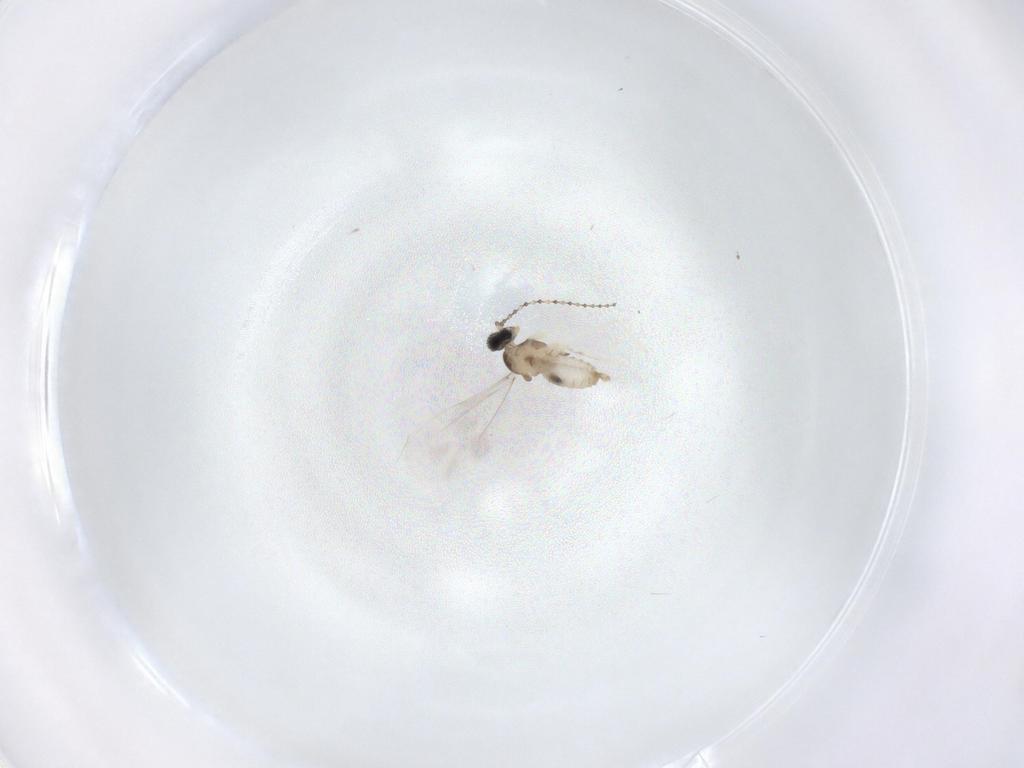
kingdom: Animalia
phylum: Arthropoda
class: Insecta
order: Diptera
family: Cecidomyiidae
